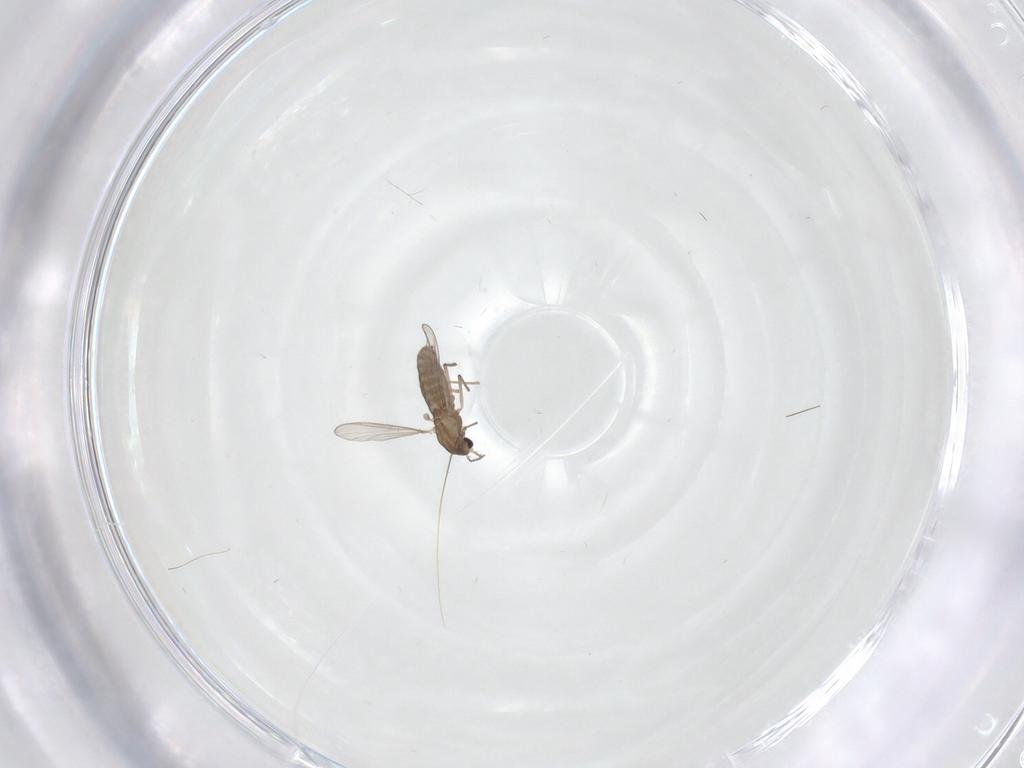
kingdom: Animalia
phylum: Arthropoda
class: Insecta
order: Diptera
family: Chironomidae
